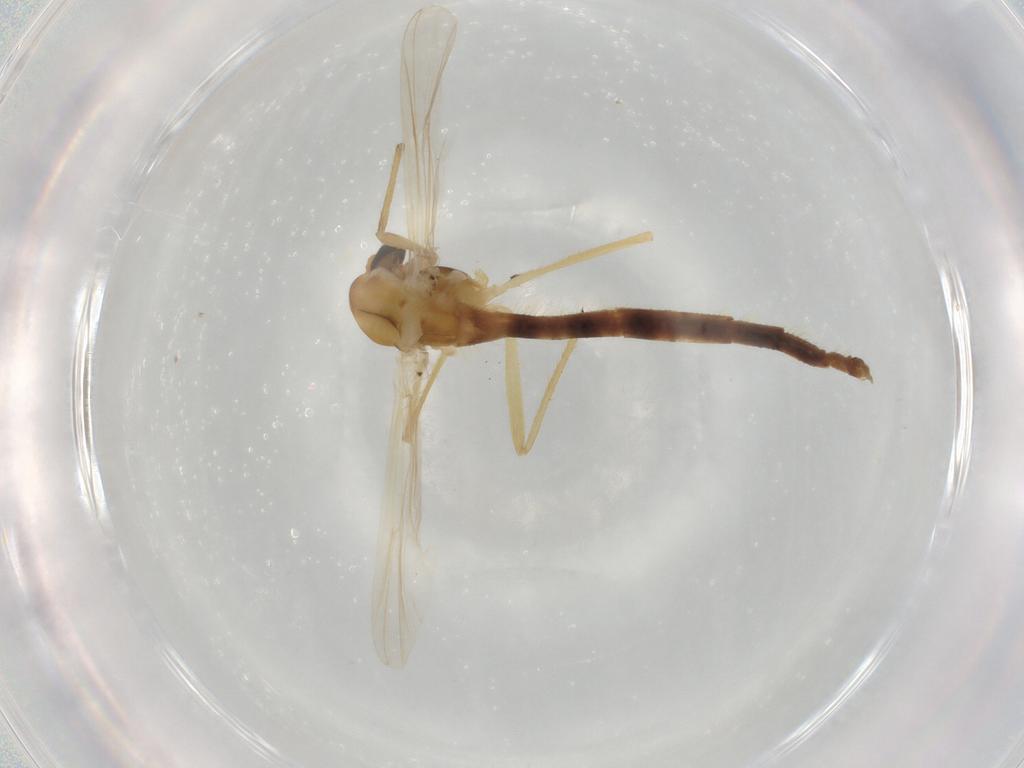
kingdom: Animalia
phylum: Arthropoda
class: Insecta
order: Diptera
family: Chironomidae
